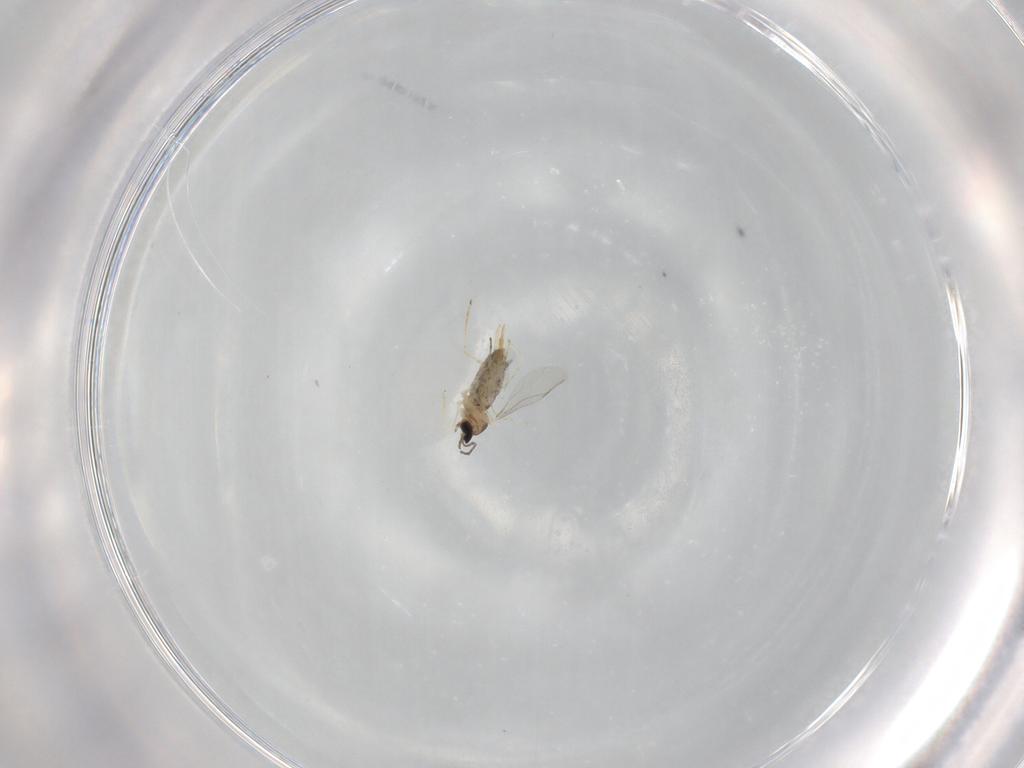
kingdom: Animalia
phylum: Arthropoda
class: Insecta
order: Diptera
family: Cecidomyiidae
